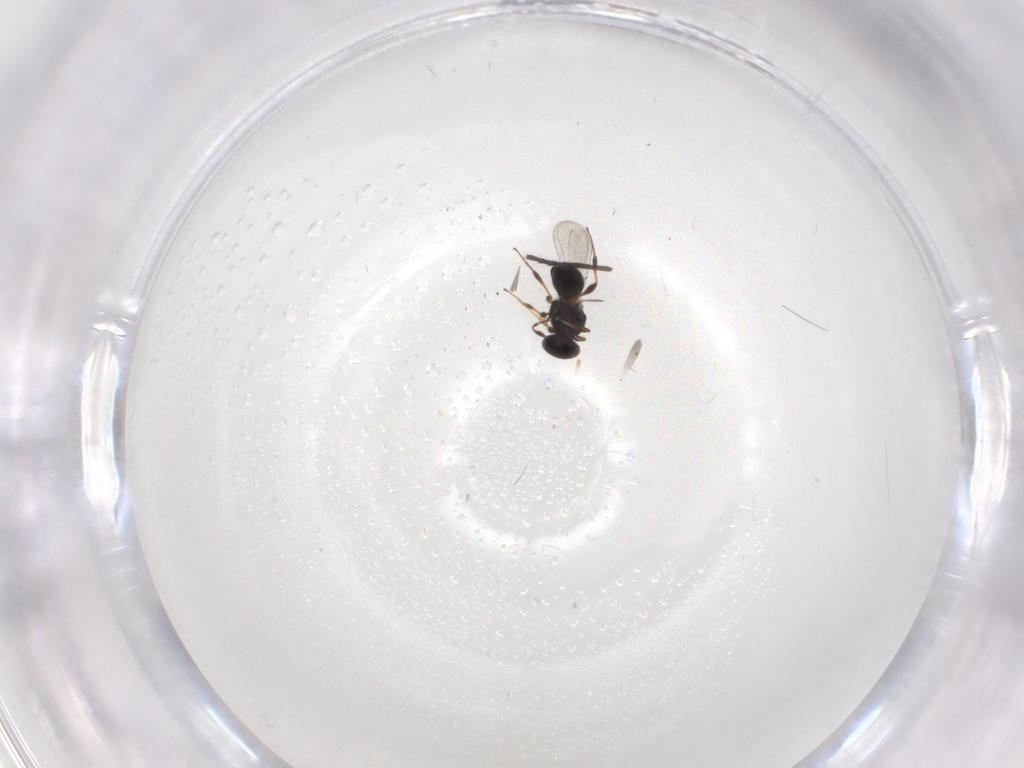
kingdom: Animalia
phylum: Arthropoda
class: Insecta
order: Hymenoptera
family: Platygastridae
